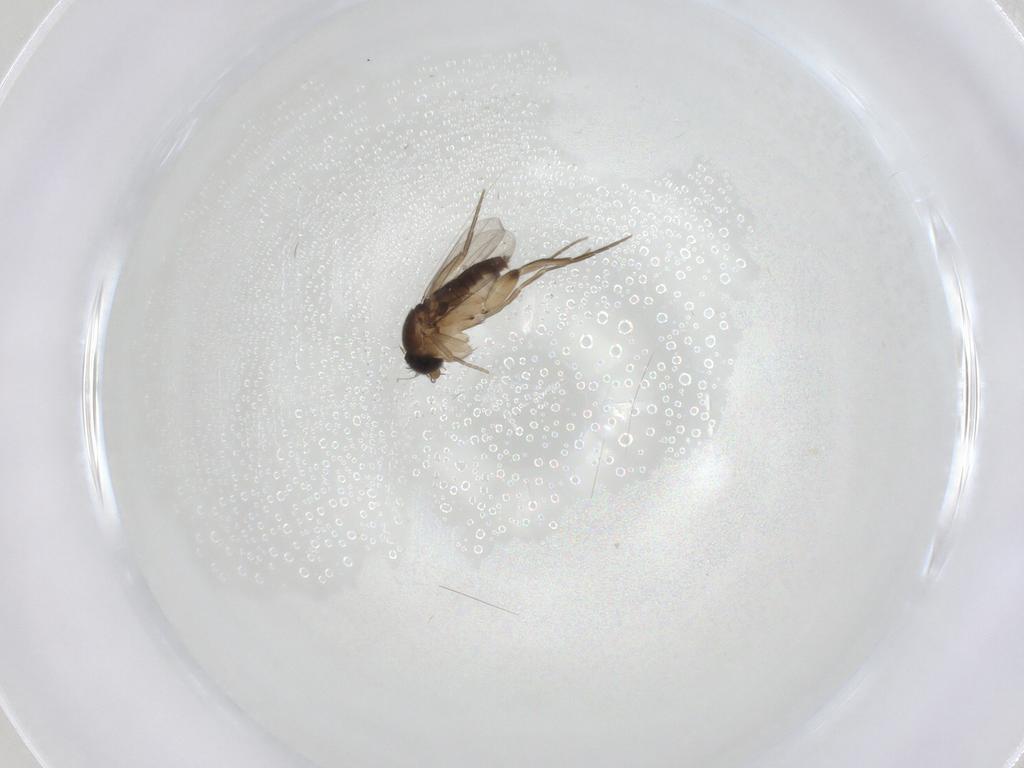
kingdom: Animalia
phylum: Arthropoda
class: Insecta
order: Diptera
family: Phoridae
